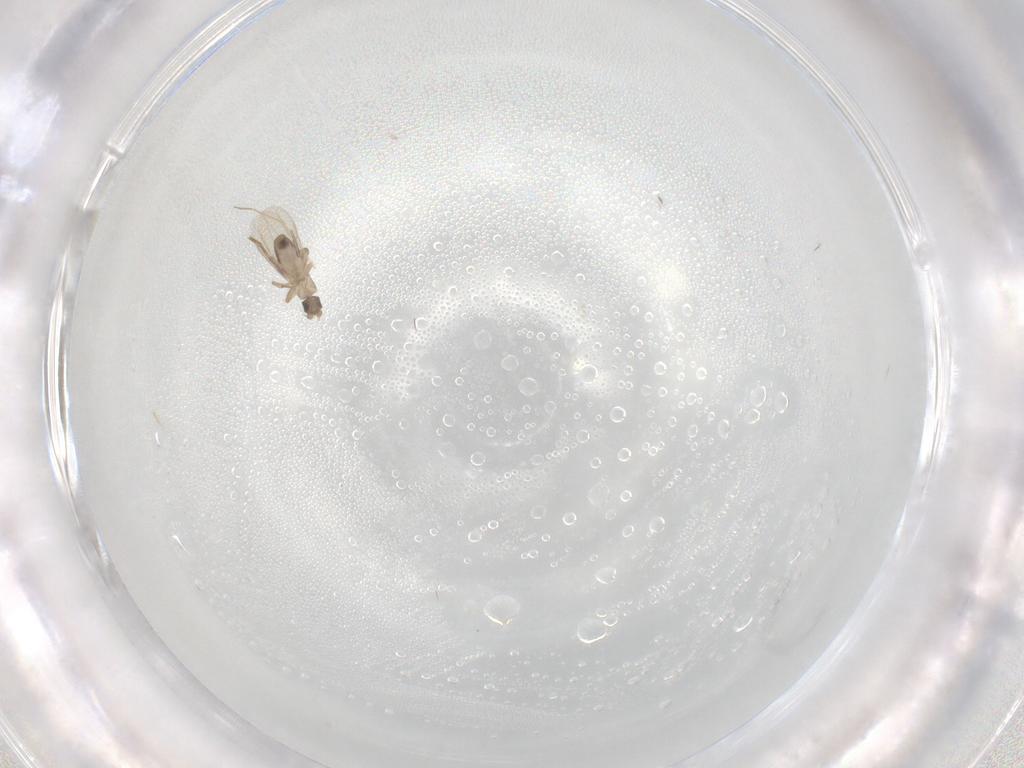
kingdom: Animalia
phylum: Arthropoda
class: Insecta
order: Diptera
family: Phoridae
